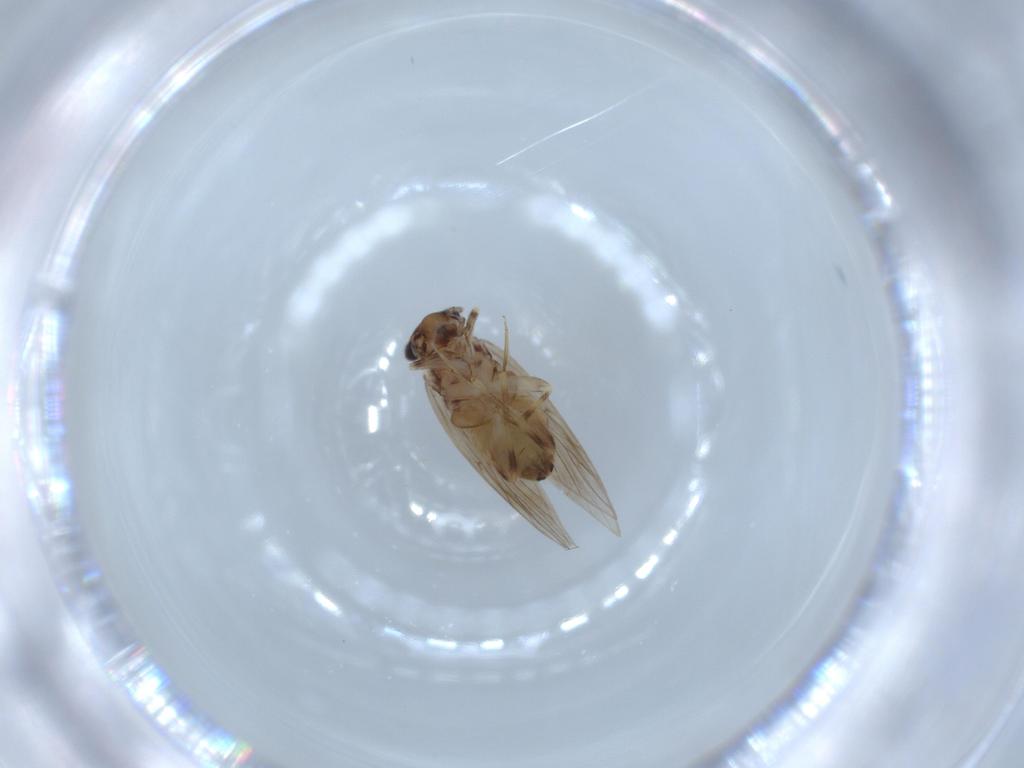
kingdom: Animalia
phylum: Arthropoda
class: Insecta
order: Psocodea
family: Lepidopsocidae
